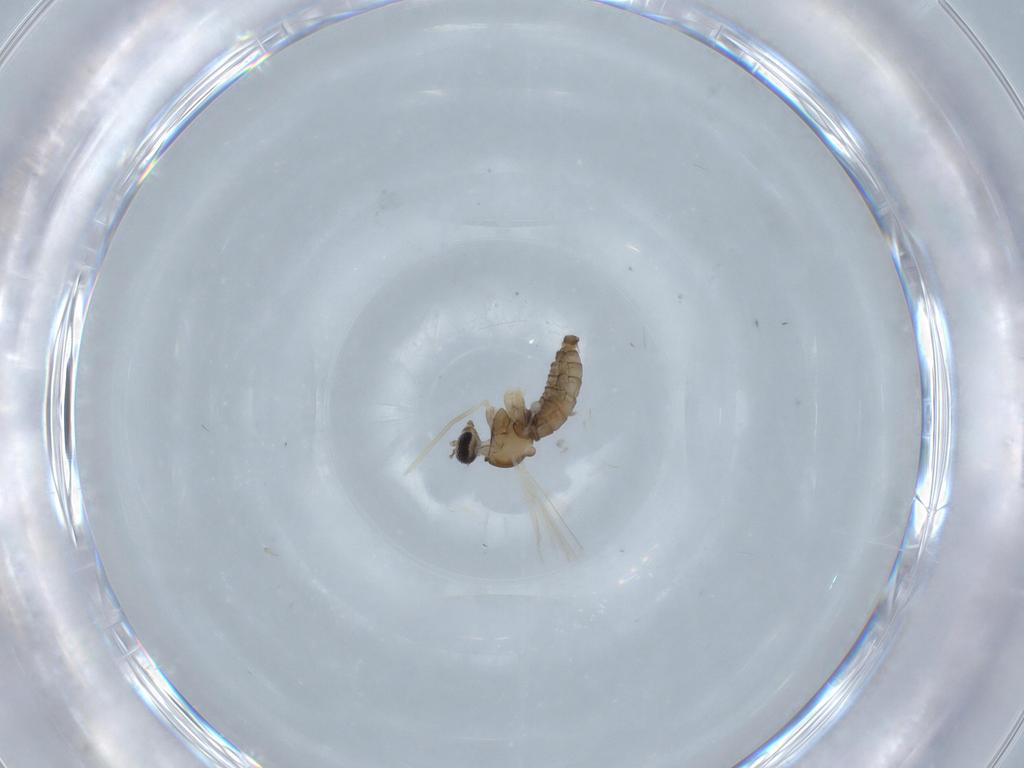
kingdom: Animalia
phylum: Arthropoda
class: Insecta
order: Diptera
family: Cecidomyiidae
